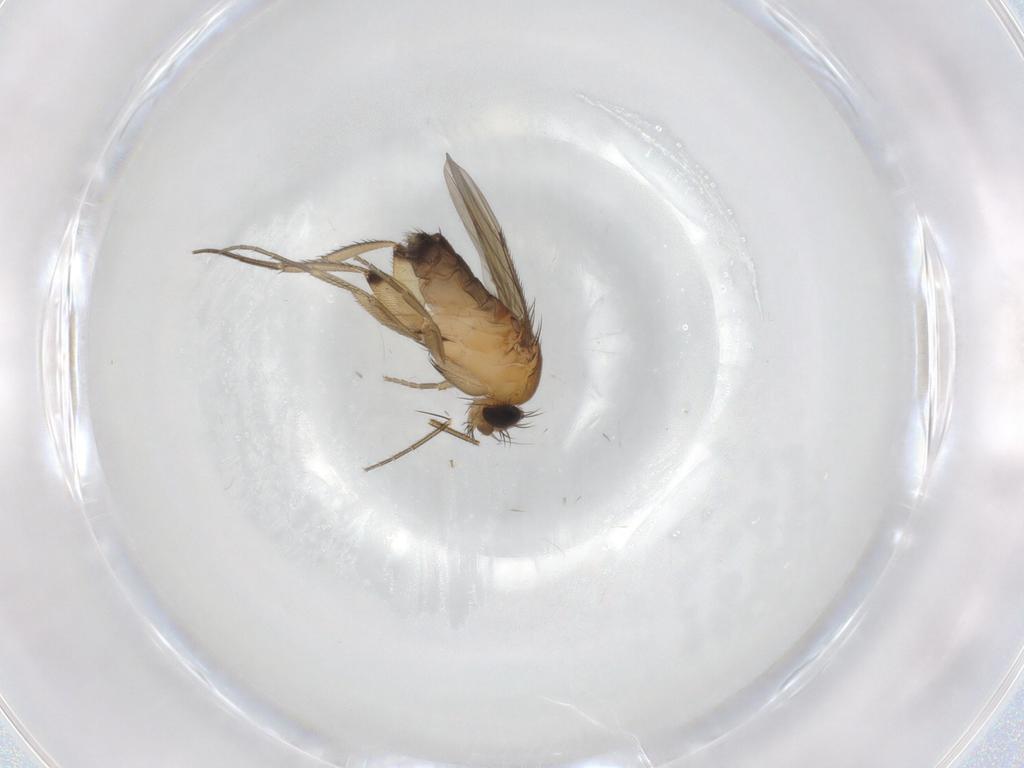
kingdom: Animalia
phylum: Arthropoda
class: Insecta
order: Diptera
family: Phoridae
